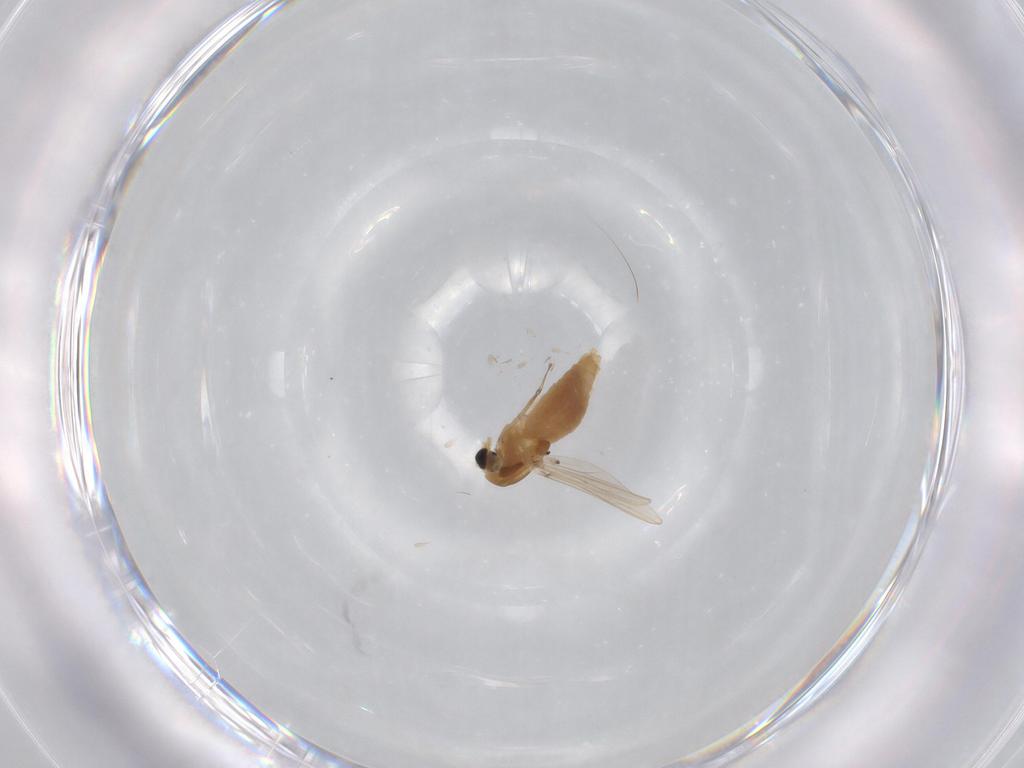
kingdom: Animalia
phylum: Arthropoda
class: Insecta
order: Diptera
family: Chironomidae
